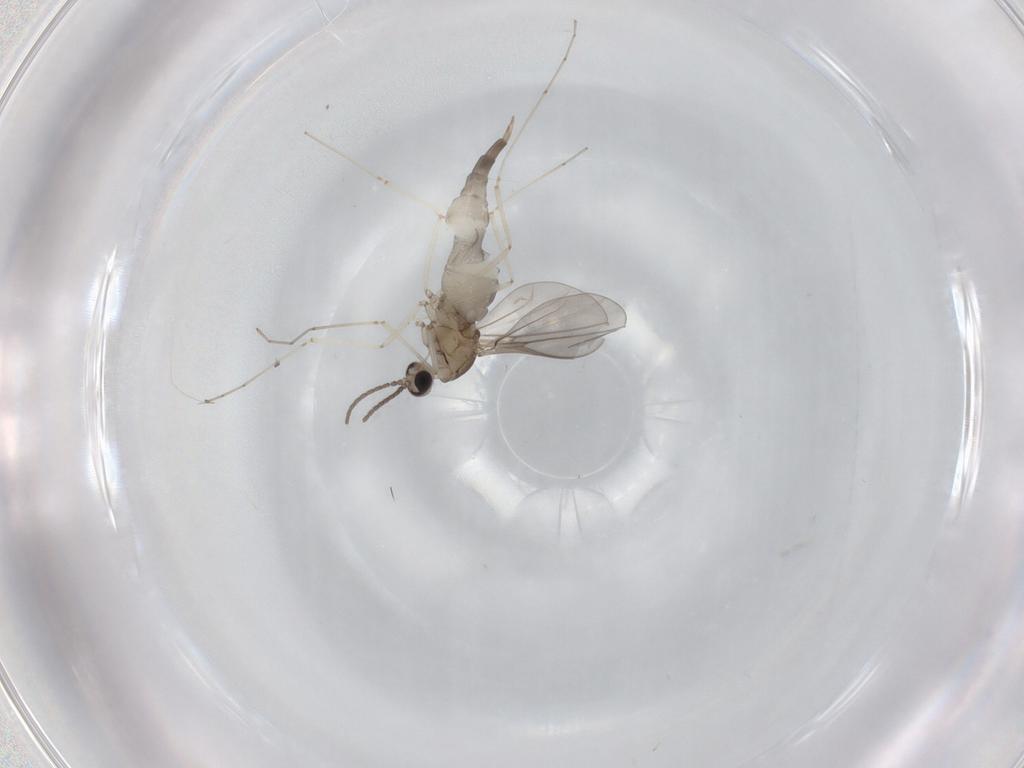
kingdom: Animalia
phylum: Arthropoda
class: Insecta
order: Diptera
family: Cecidomyiidae
